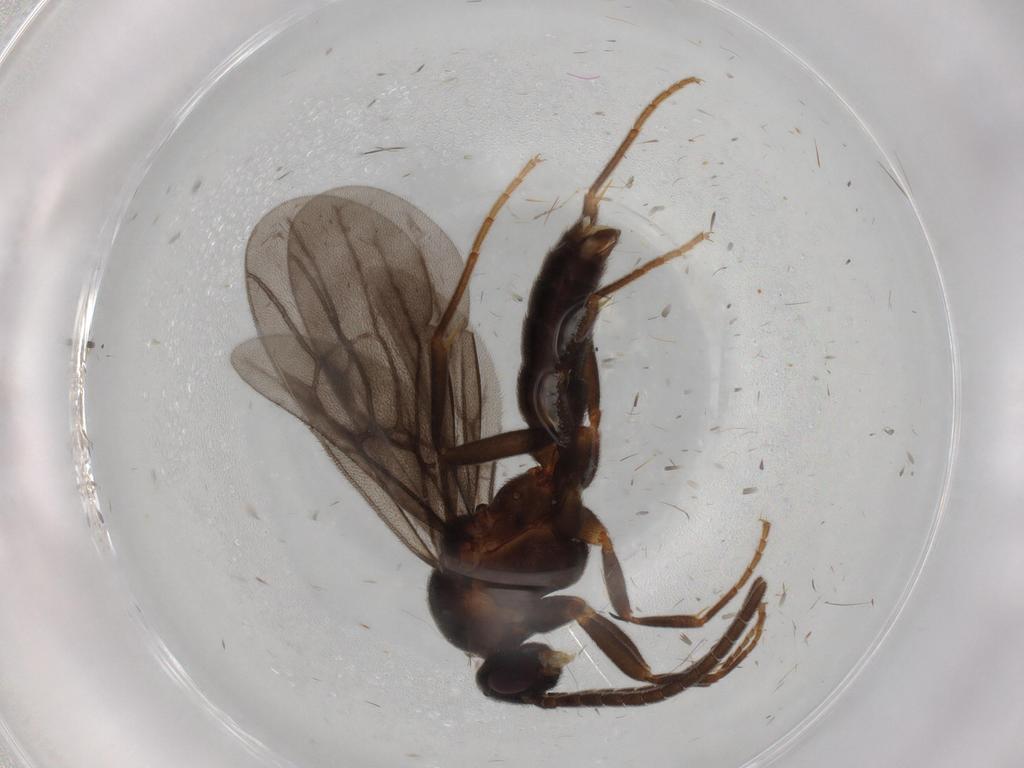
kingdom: Animalia
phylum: Arthropoda
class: Insecta
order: Hymenoptera
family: Formicidae
